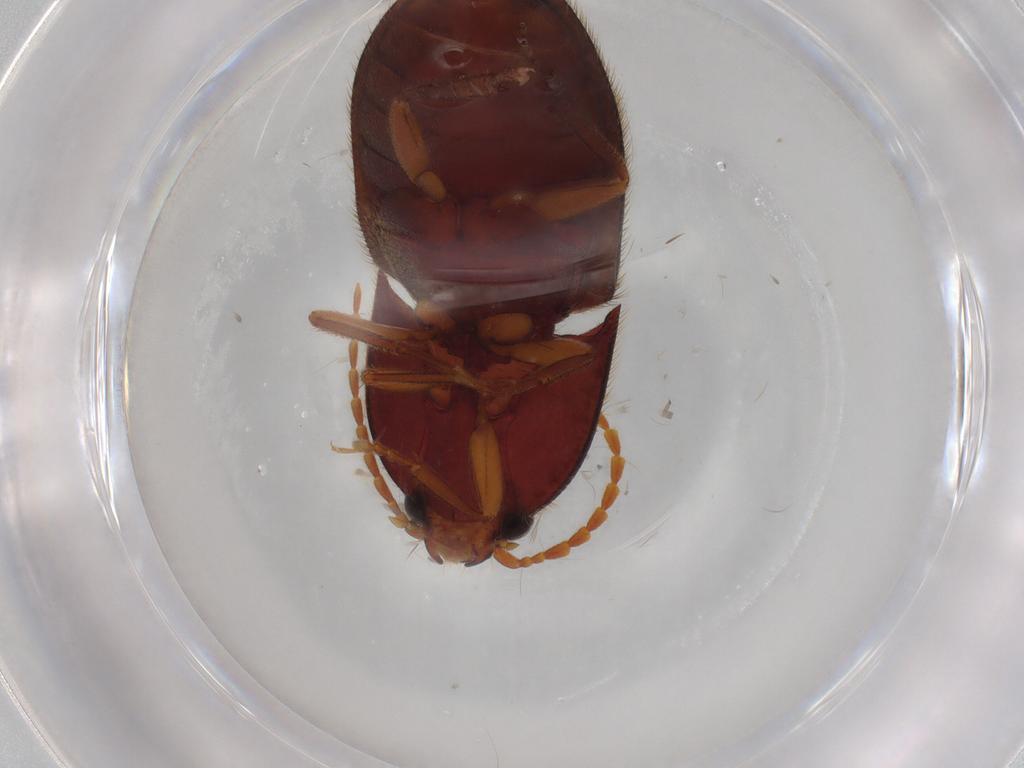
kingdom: Animalia
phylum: Arthropoda
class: Insecta
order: Coleoptera
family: Elateridae
